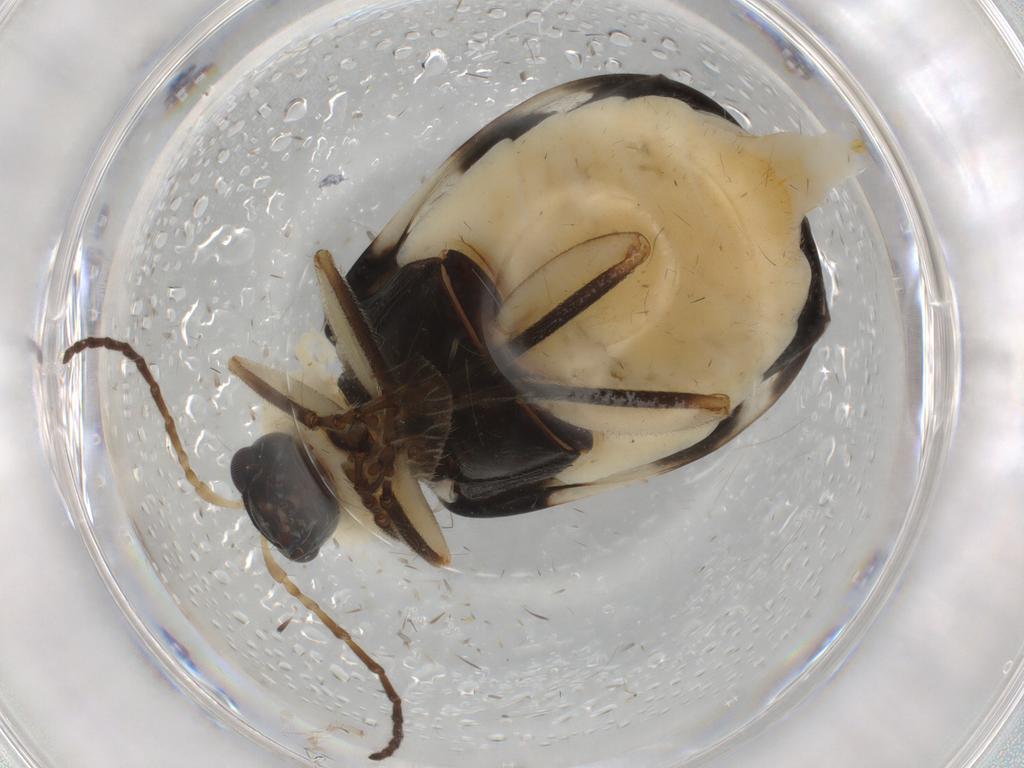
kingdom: Animalia
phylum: Arthropoda
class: Insecta
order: Coleoptera
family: Chrysomelidae
